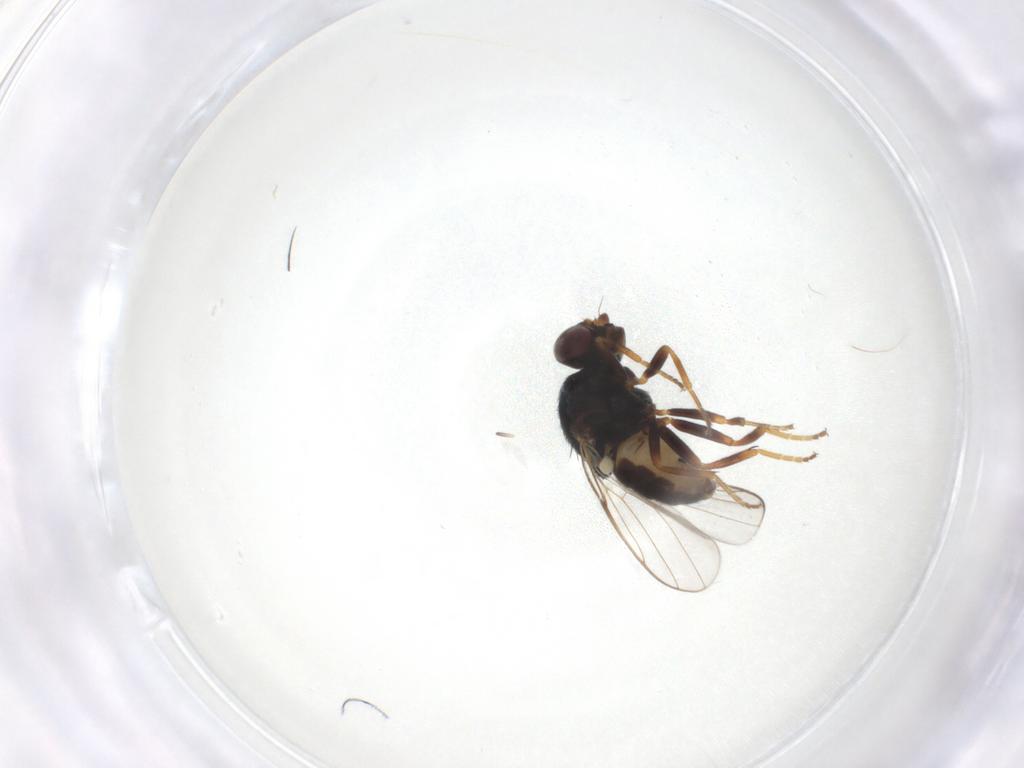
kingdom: Animalia
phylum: Arthropoda
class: Insecta
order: Diptera
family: Chloropidae
